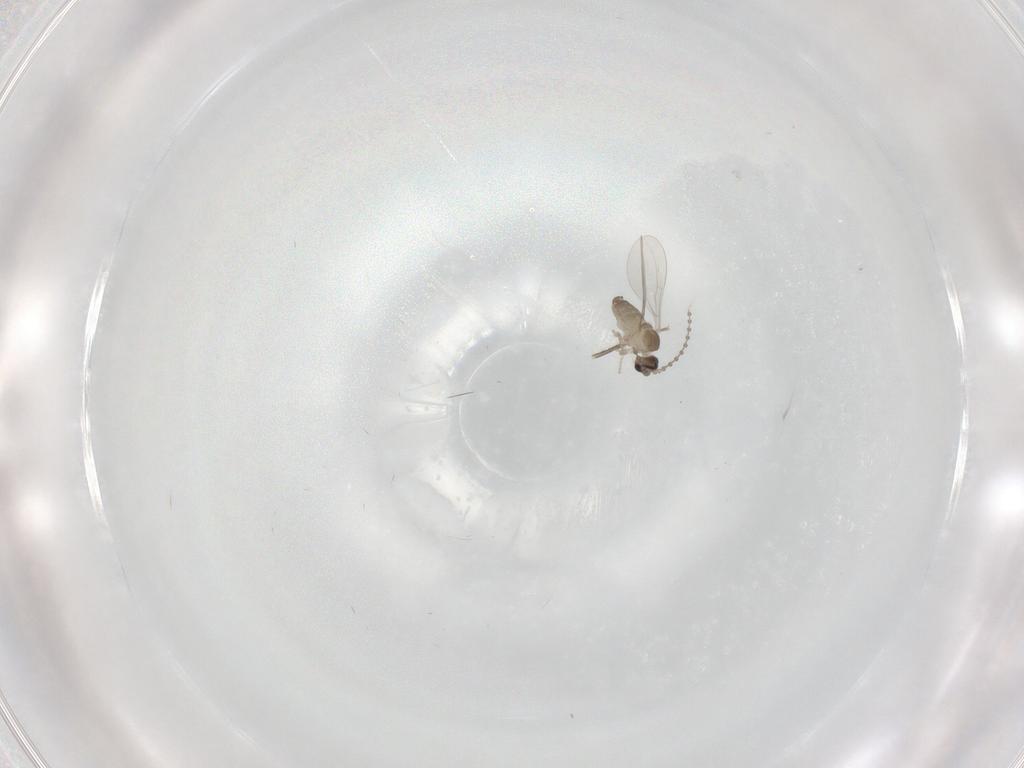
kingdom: Animalia
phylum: Arthropoda
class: Insecta
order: Diptera
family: Cecidomyiidae
